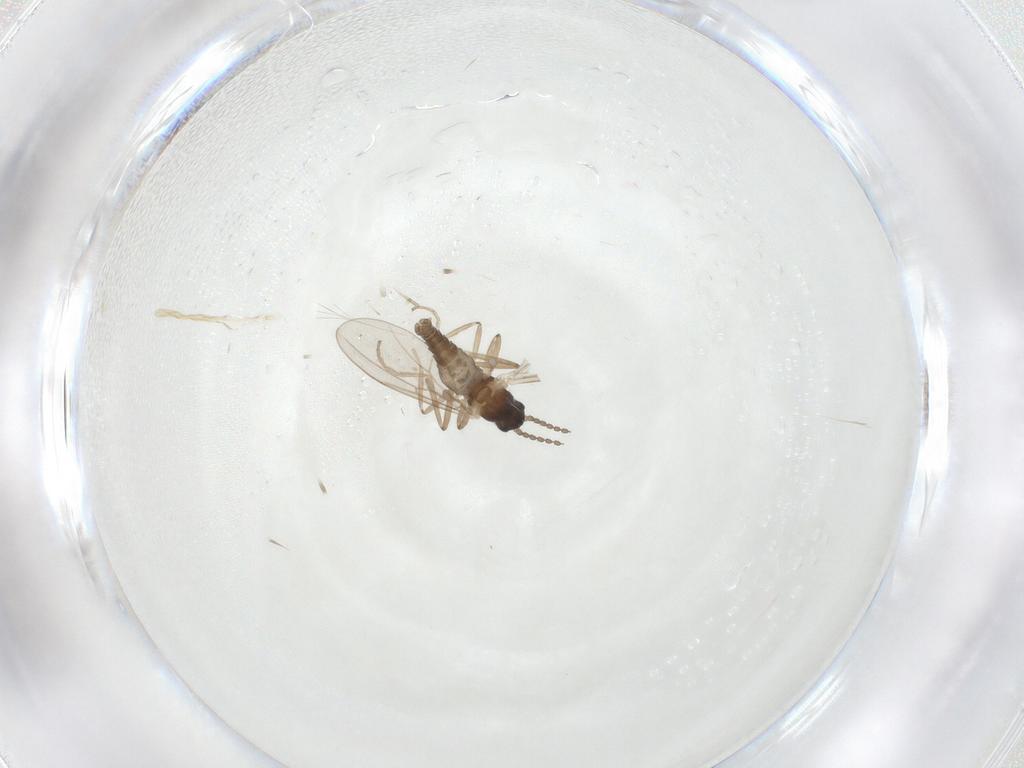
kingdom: Animalia
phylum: Arthropoda
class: Insecta
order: Diptera
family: Cecidomyiidae
